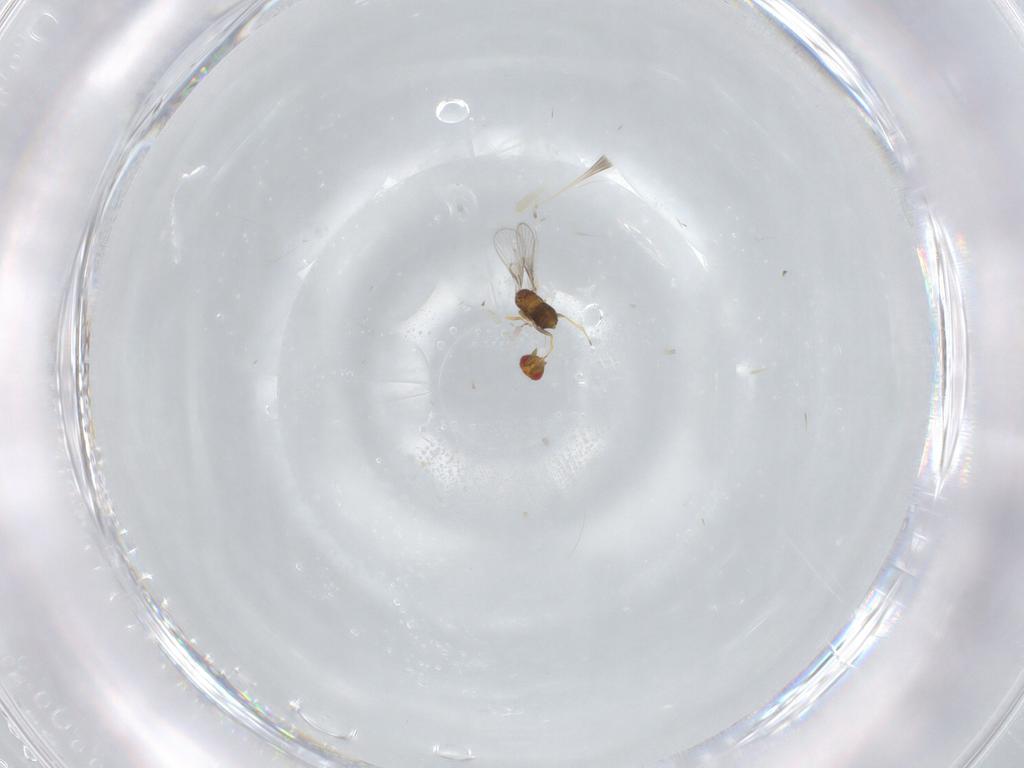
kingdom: Animalia
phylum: Arthropoda
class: Insecta
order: Hymenoptera
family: Trichogrammatidae
